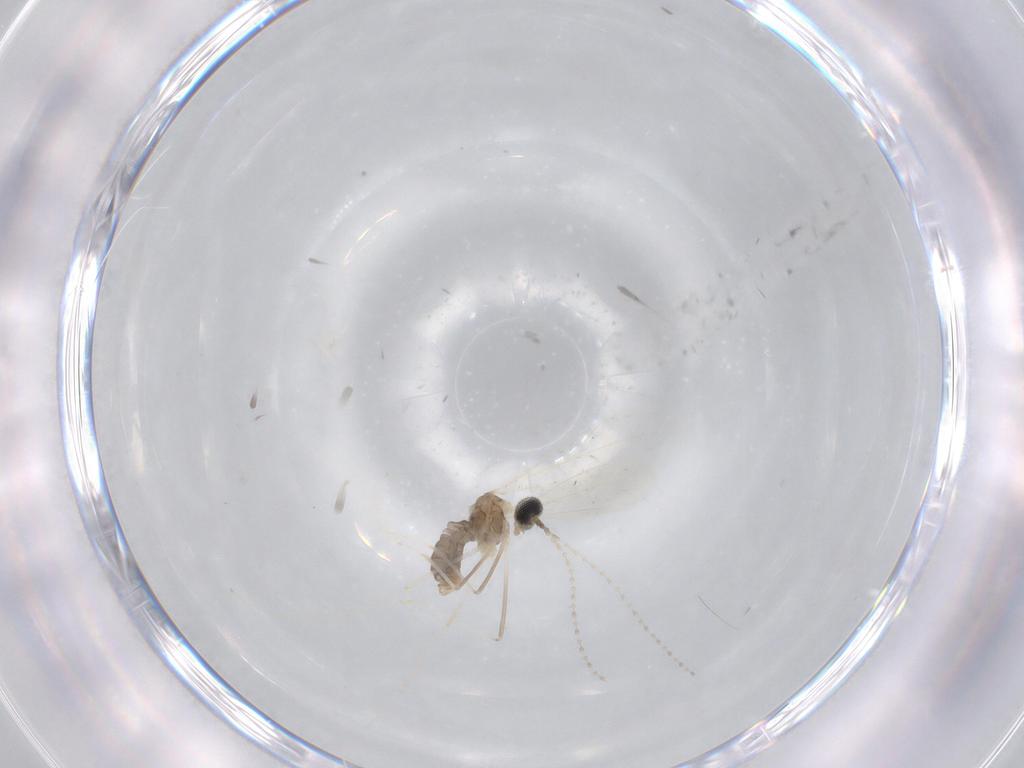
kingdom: Animalia
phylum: Arthropoda
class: Insecta
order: Diptera
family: Cecidomyiidae
